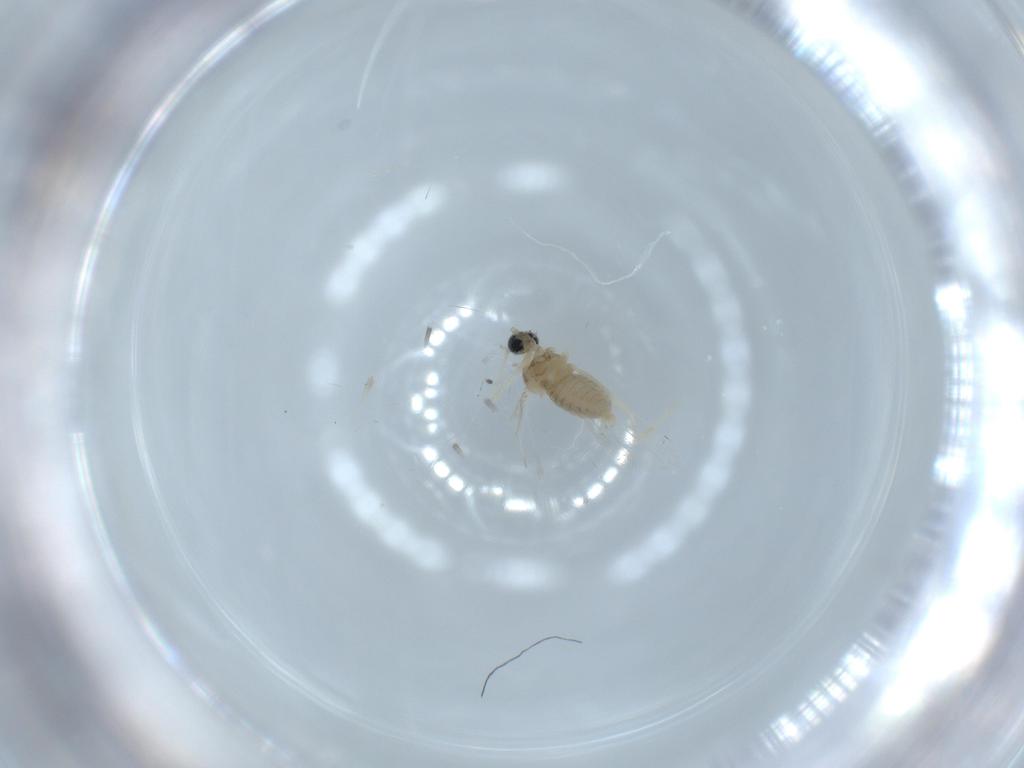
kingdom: Animalia
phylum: Arthropoda
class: Insecta
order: Diptera
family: Cecidomyiidae
